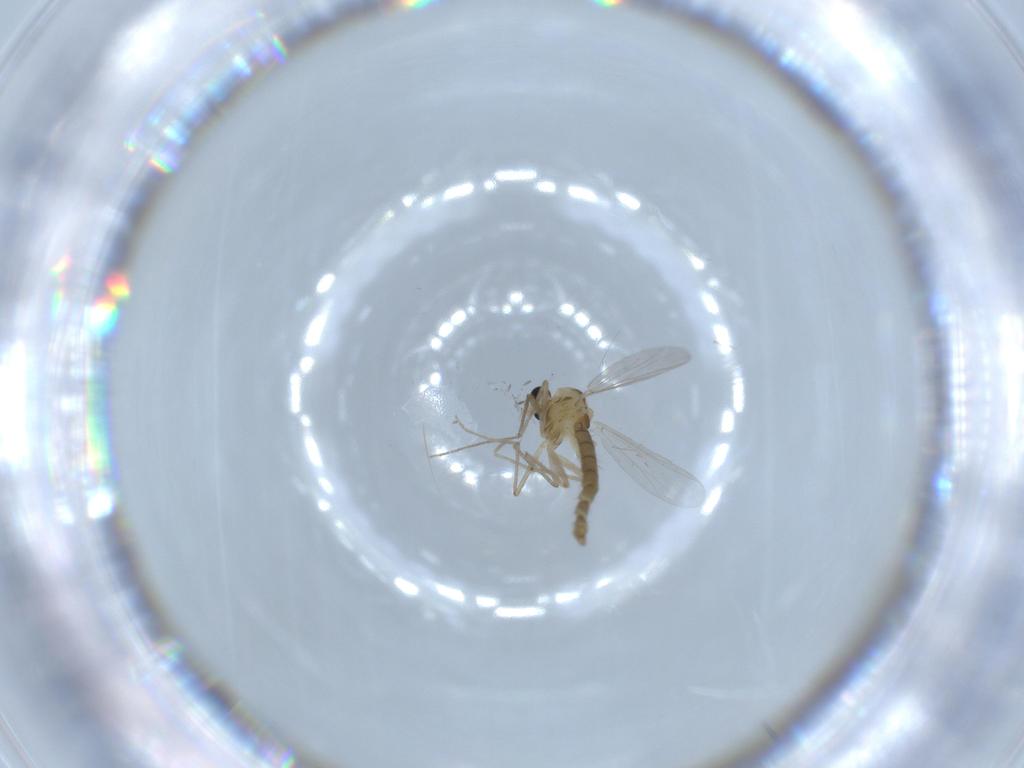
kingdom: Animalia
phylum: Arthropoda
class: Insecta
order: Diptera
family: Chironomidae
